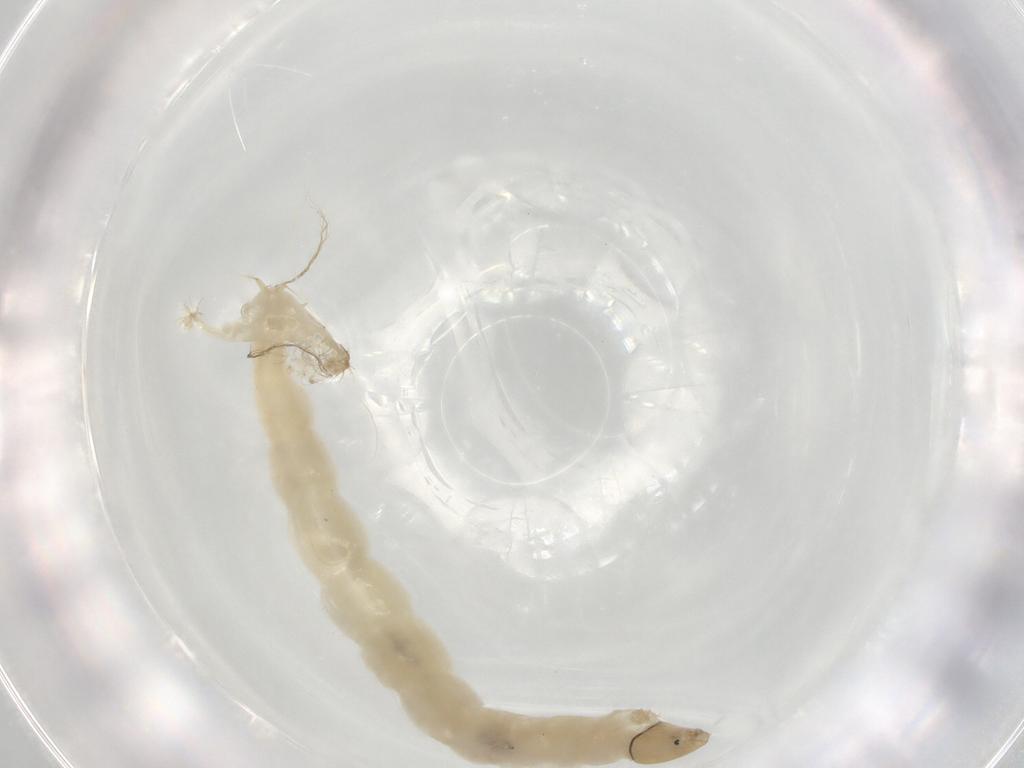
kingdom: Animalia
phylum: Arthropoda
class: Insecta
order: Diptera
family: Chironomidae
